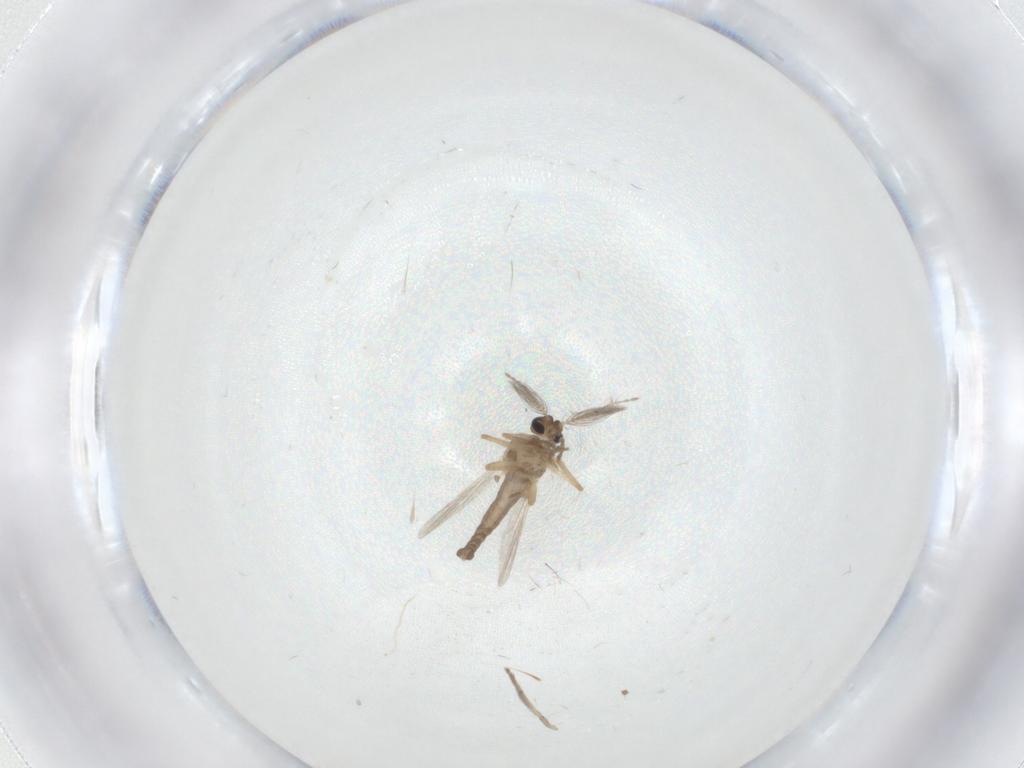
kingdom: Animalia
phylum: Arthropoda
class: Insecta
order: Diptera
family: Ceratopogonidae
